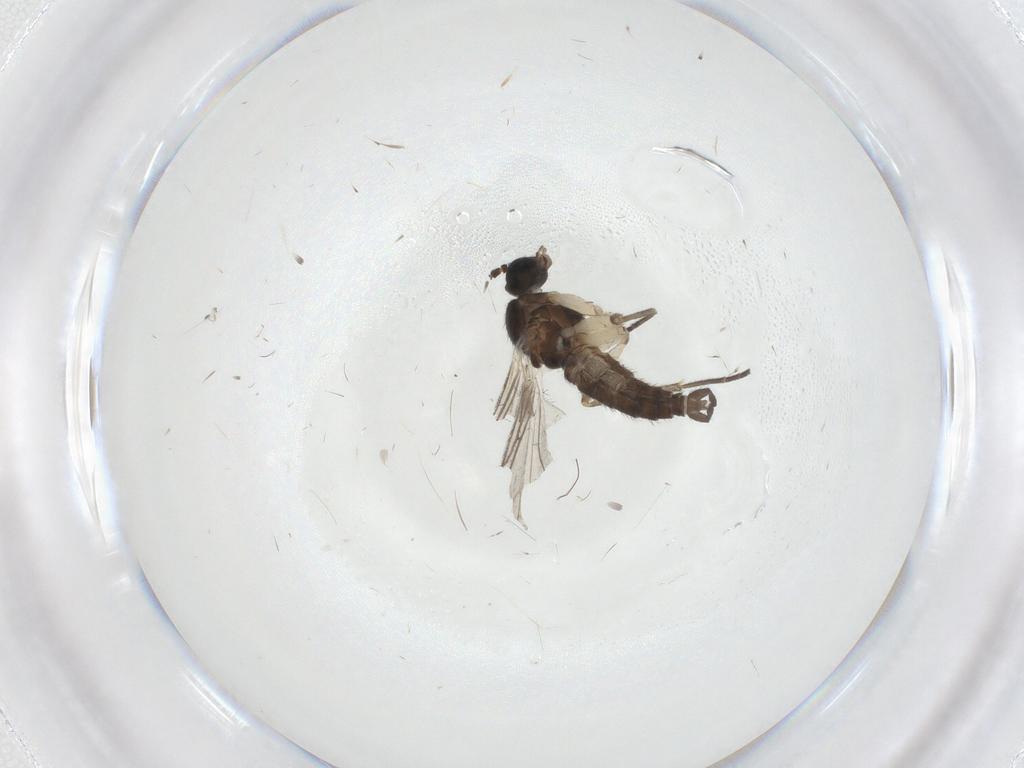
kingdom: Animalia
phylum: Arthropoda
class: Insecta
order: Diptera
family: Sciaridae
